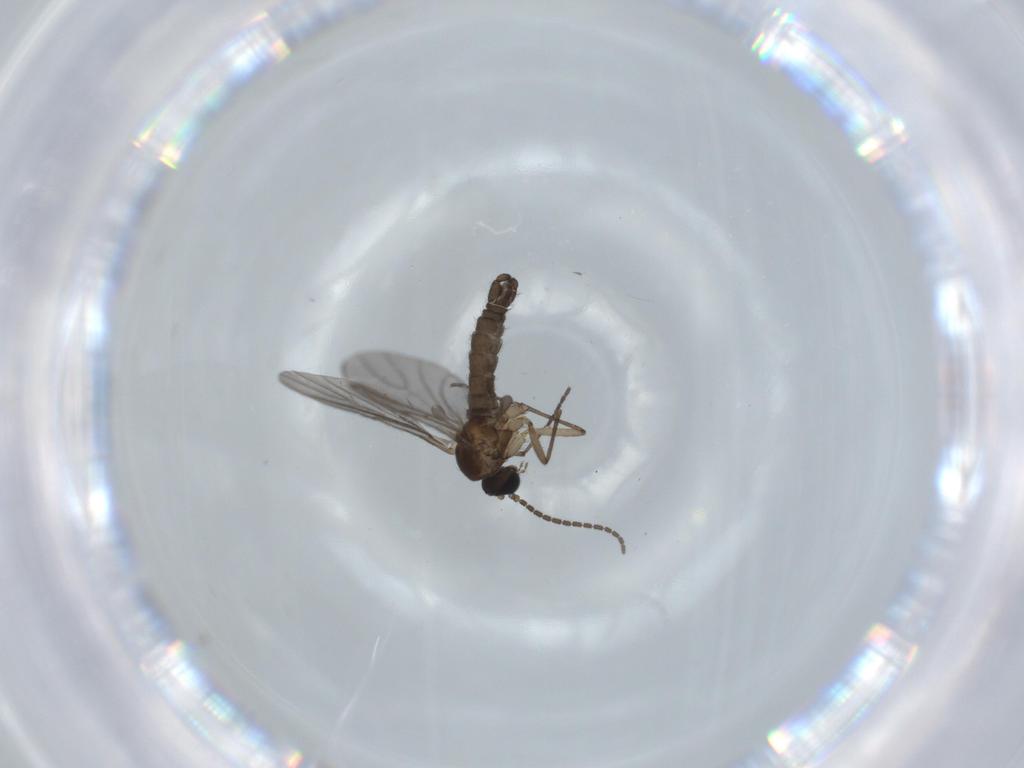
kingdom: Animalia
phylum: Arthropoda
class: Insecta
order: Diptera
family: Sciaridae
